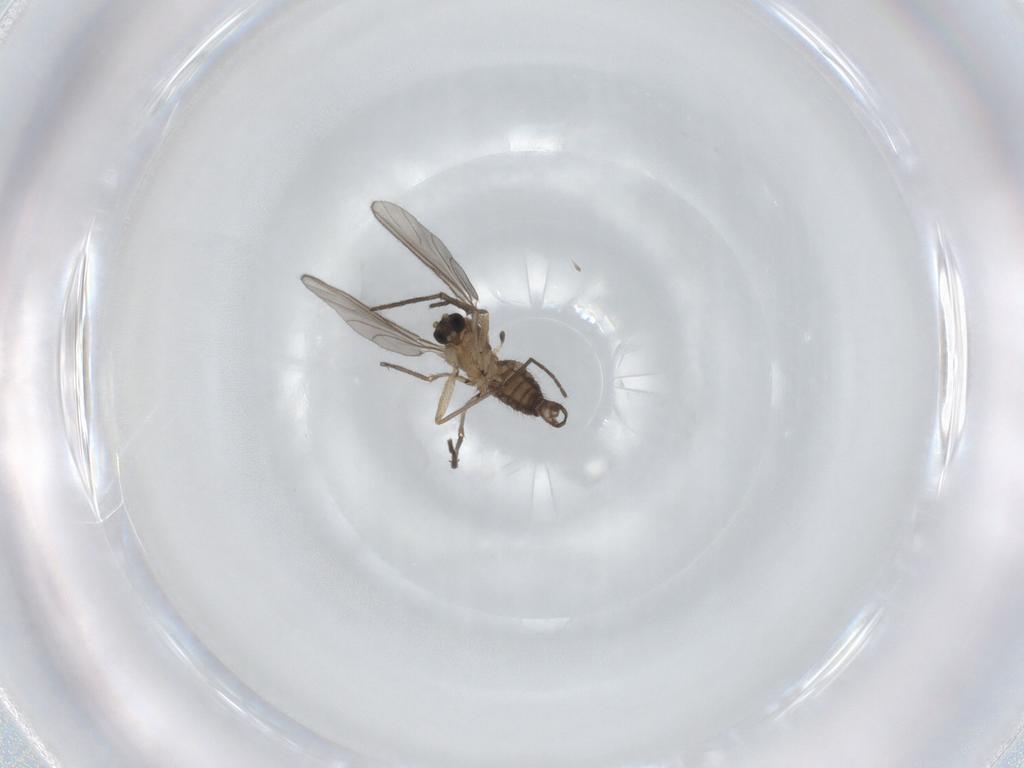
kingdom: Animalia
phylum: Arthropoda
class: Insecta
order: Diptera
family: Sciaridae
